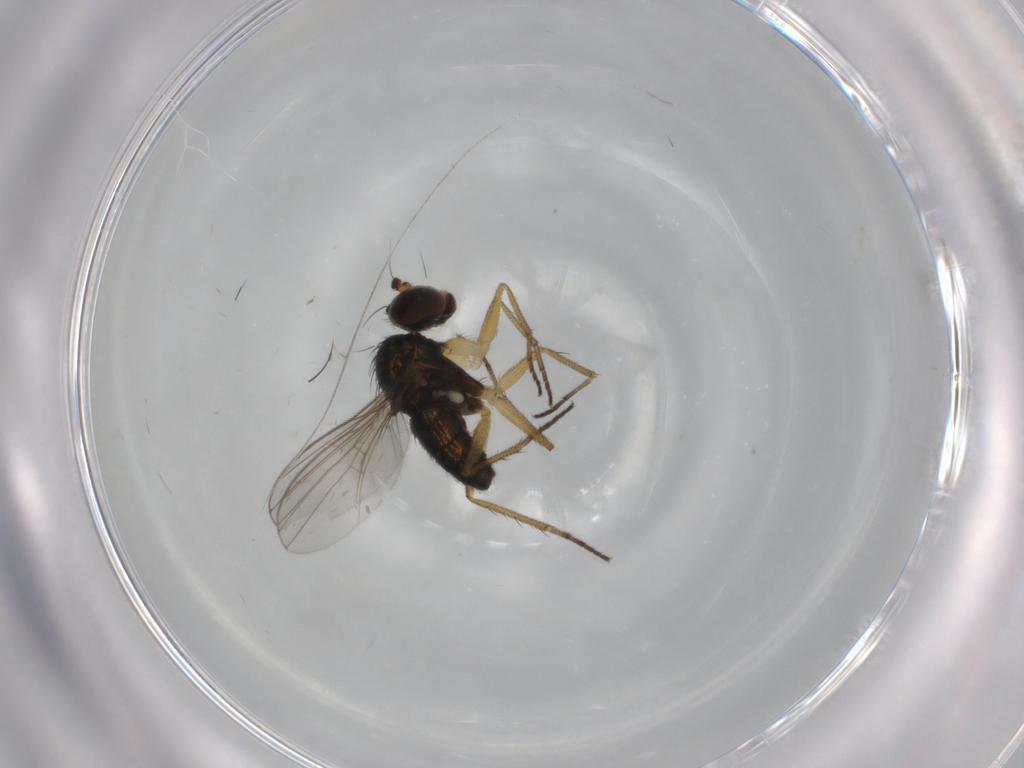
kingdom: Animalia
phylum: Arthropoda
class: Insecta
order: Diptera
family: Dolichopodidae
